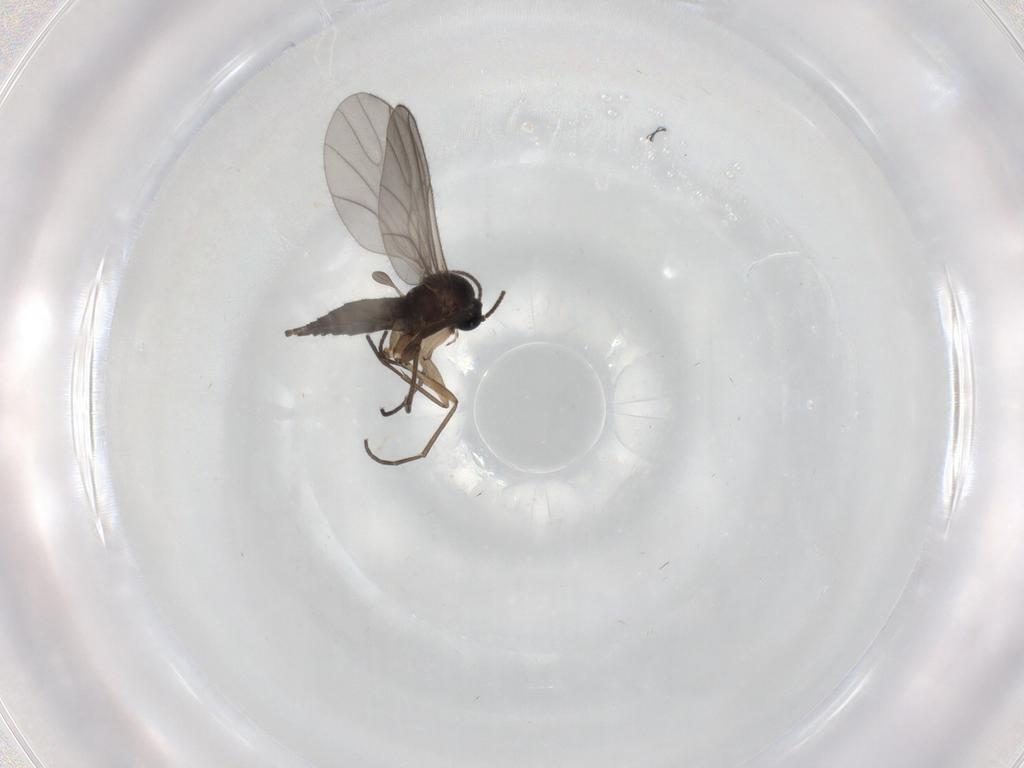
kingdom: Animalia
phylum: Arthropoda
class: Insecta
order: Diptera
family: Sciaridae
